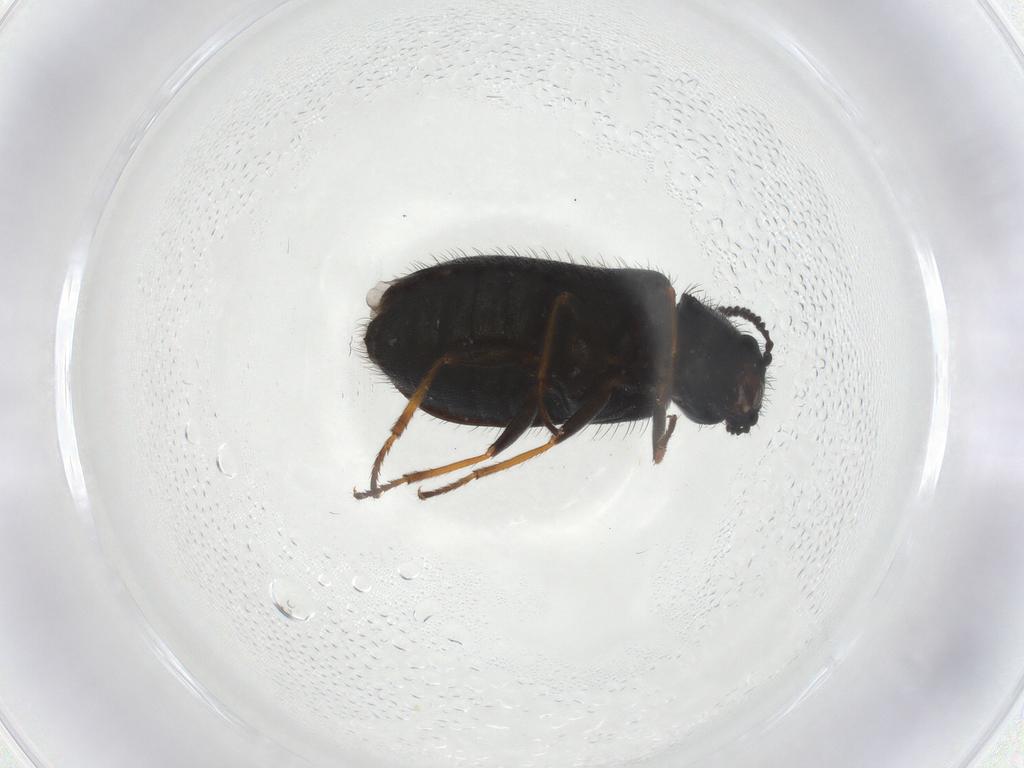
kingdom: Animalia
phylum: Arthropoda
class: Insecta
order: Coleoptera
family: Melyridae
